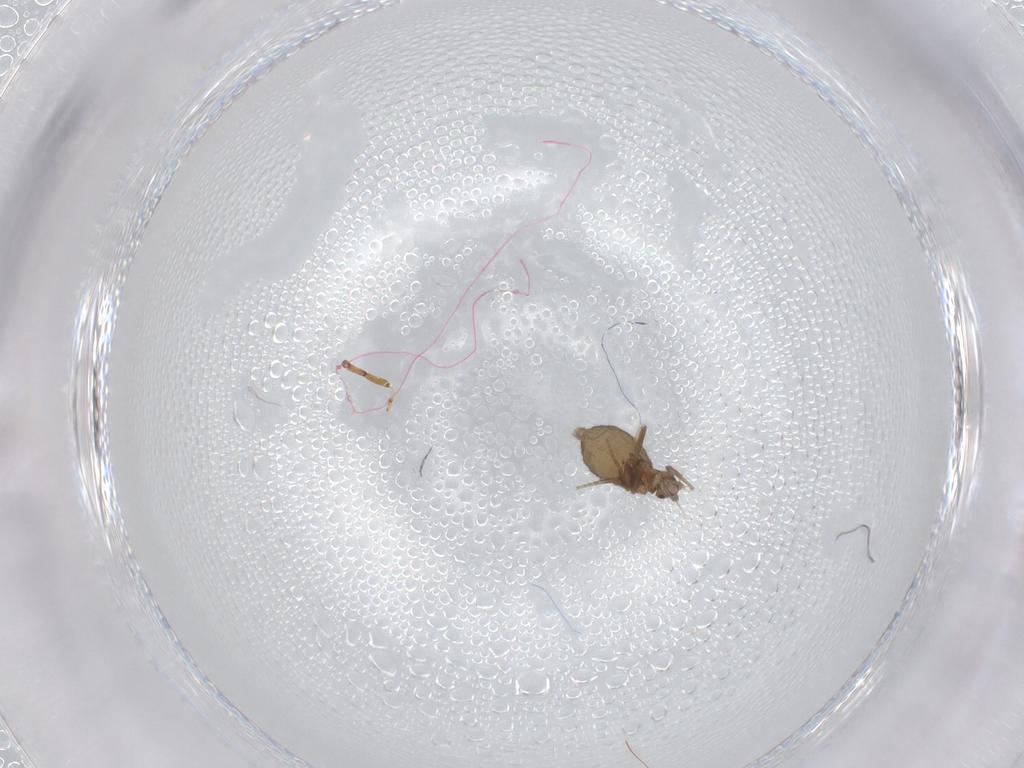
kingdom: Animalia
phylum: Arthropoda
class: Insecta
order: Diptera
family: Phoridae
